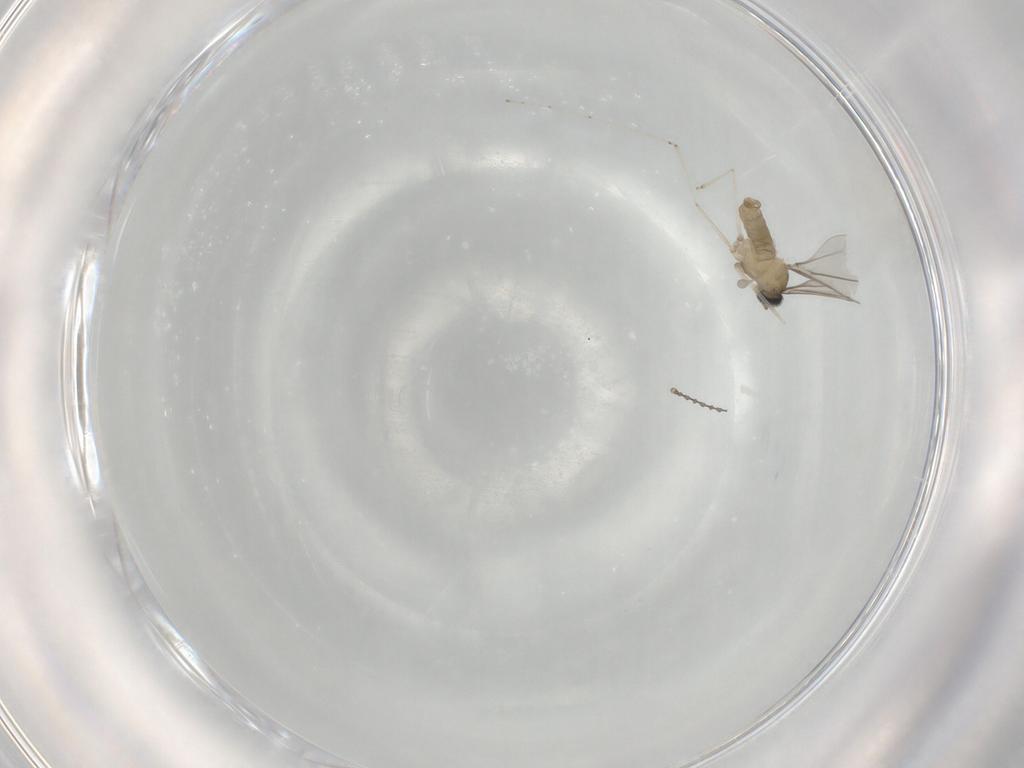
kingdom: Animalia
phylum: Arthropoda
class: Insecta
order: Diptera
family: Cecidomyiidae
